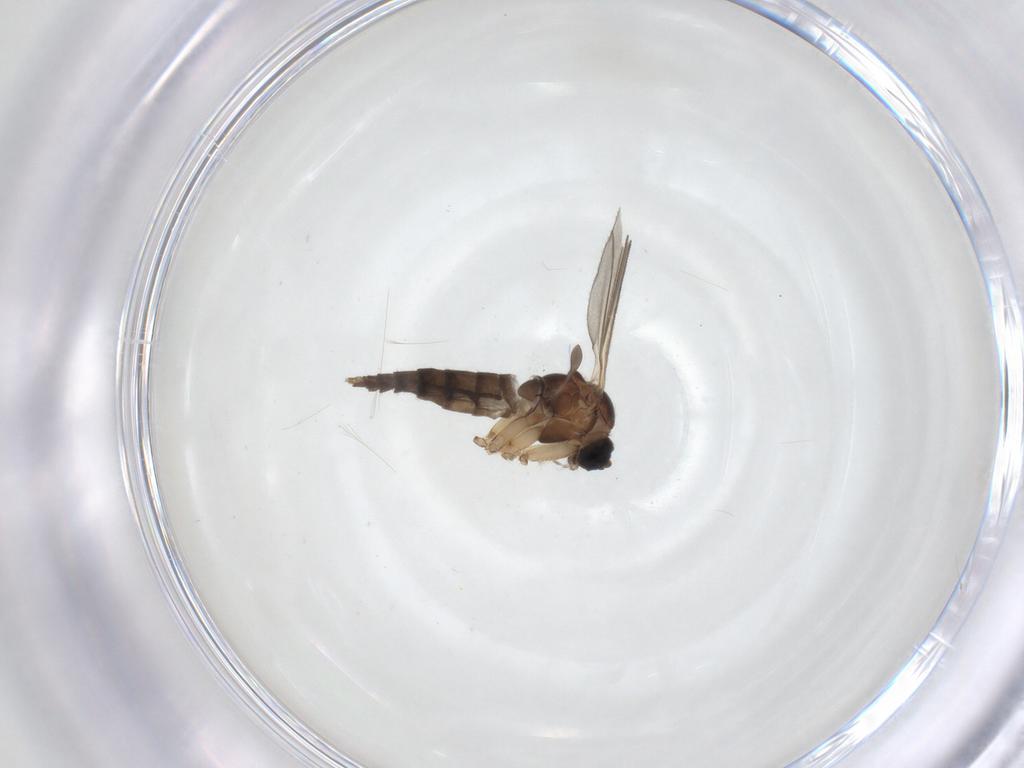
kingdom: Animalia
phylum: Arthropoda
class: Insecta
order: Diptera
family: Sciaridae
